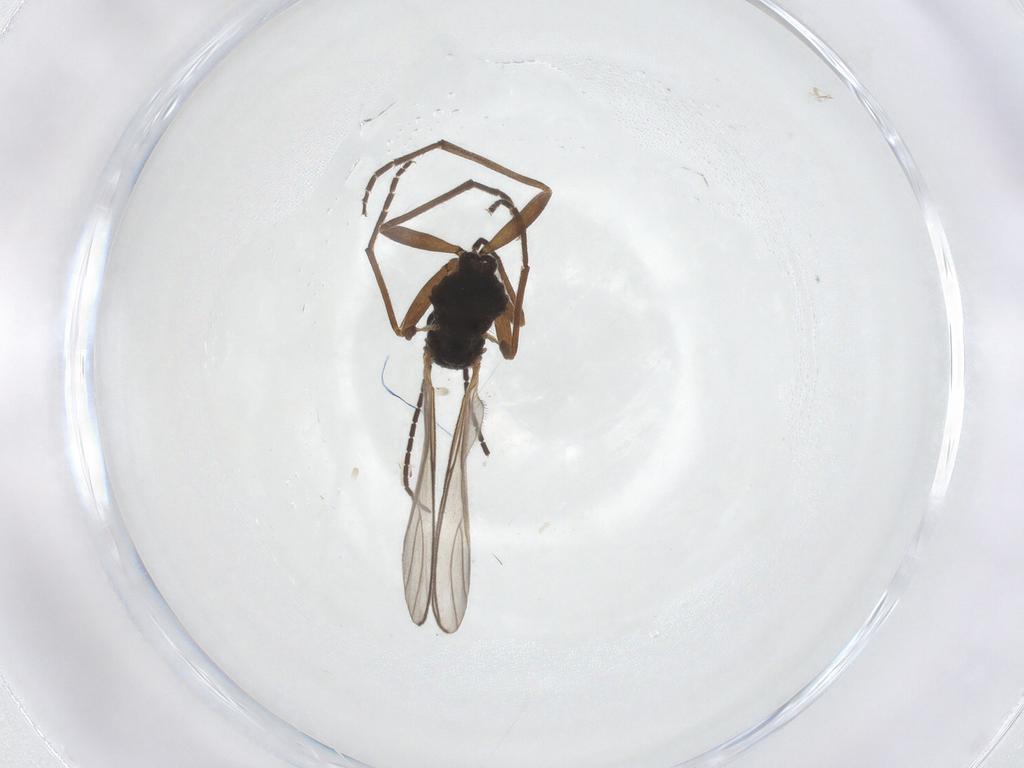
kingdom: Animalia
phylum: Arthropoda
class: Insecta
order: Diptera
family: Sciaridae
